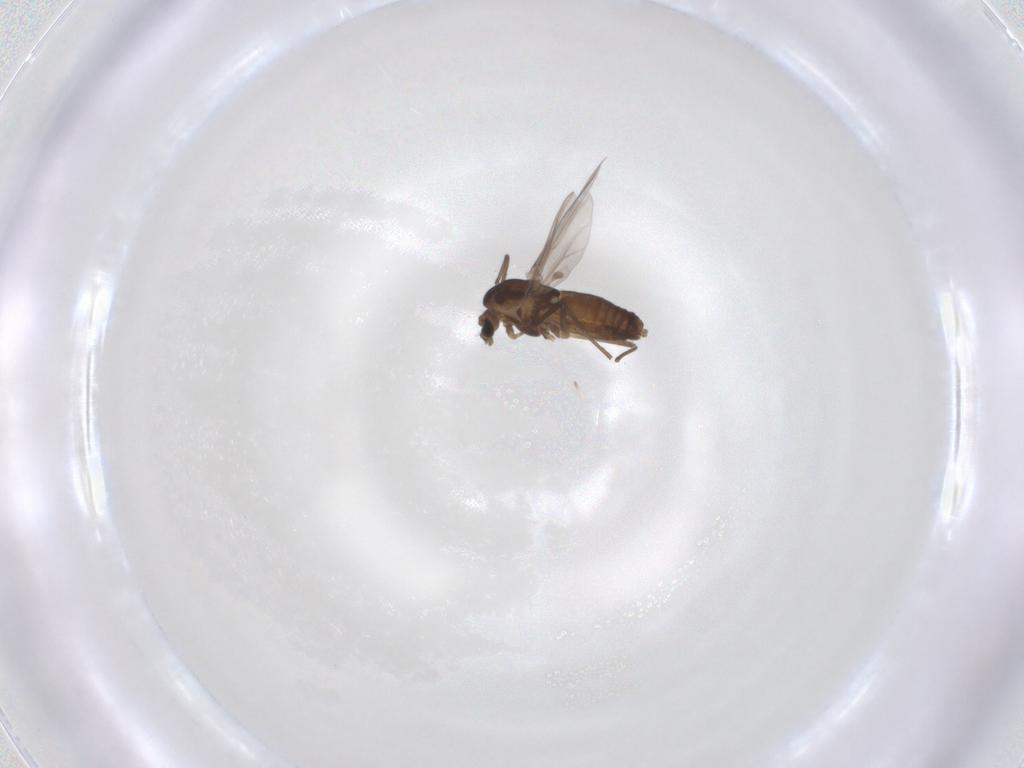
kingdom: Animalia
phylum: Arthropoda
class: Insecta
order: Diptera
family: Chironomidae
